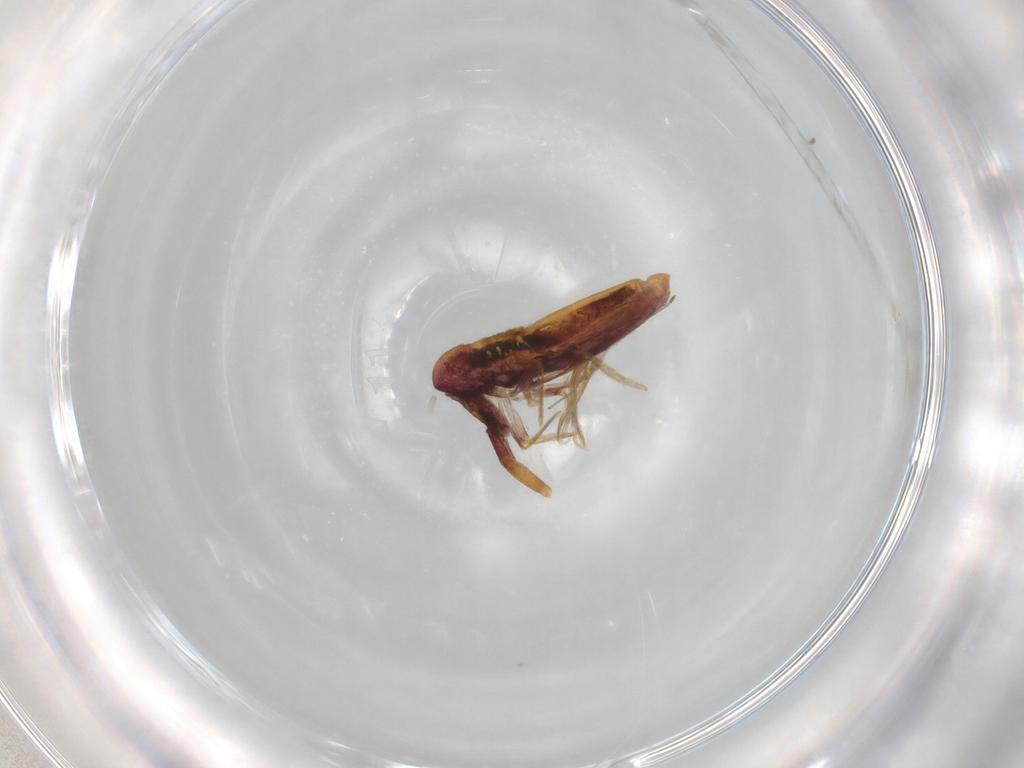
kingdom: Animalia
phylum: Arthropoda
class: Collembola
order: Entomobryomorpha
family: Entomobryidae
